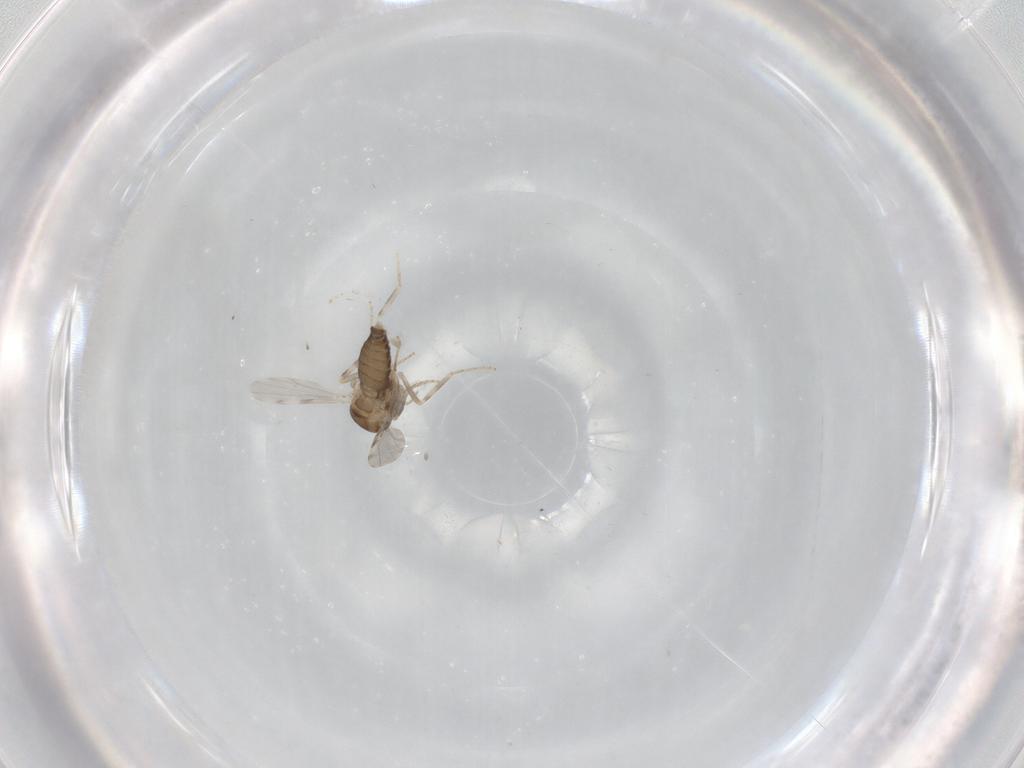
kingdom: Animalia
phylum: Arthropoda
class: Insecta
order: Diptera
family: Ceratopogonidae
